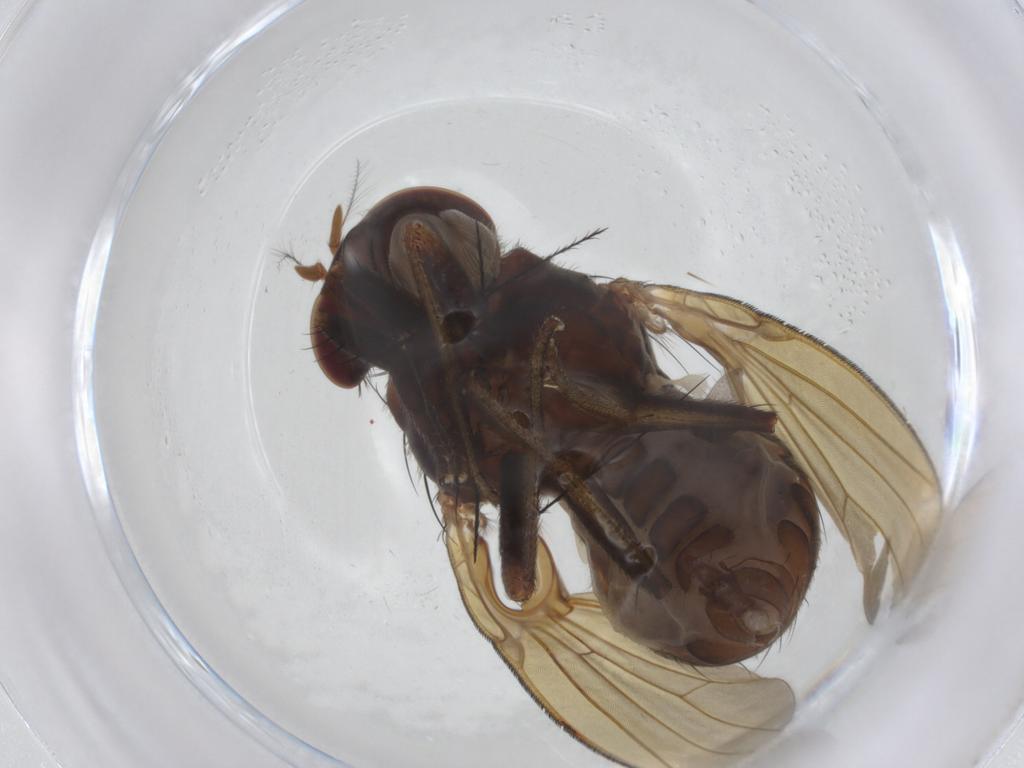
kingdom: Animalia
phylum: Arthropoda
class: Insecta
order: Diptera
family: Lauxaniidae
